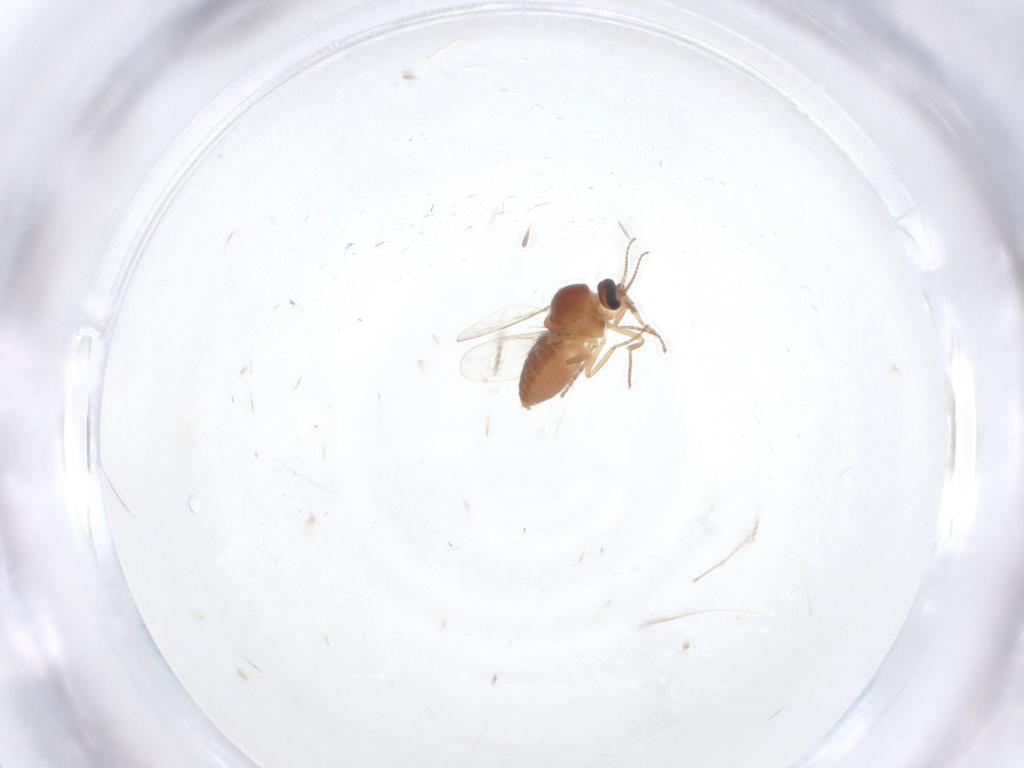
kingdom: Animalia
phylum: Arthropoda
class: Insecta
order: Diptera
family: Ceratopogonidae
